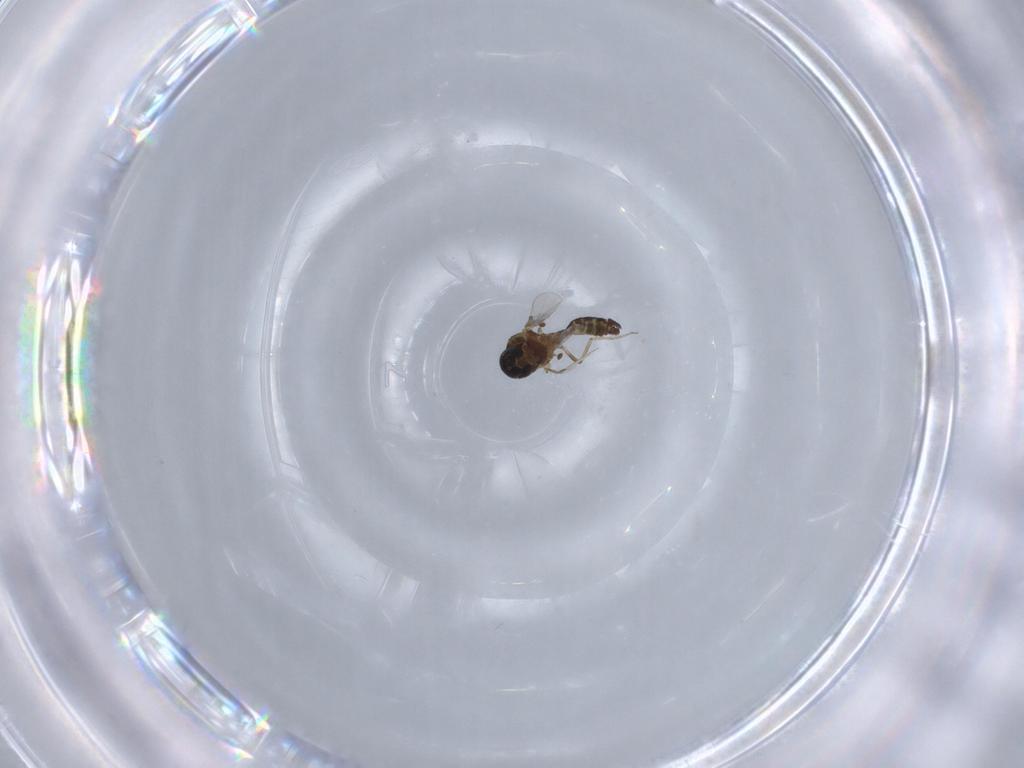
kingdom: Animalia
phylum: Arthropoda
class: Insecta
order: Diptera
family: Ceratopogonidae
